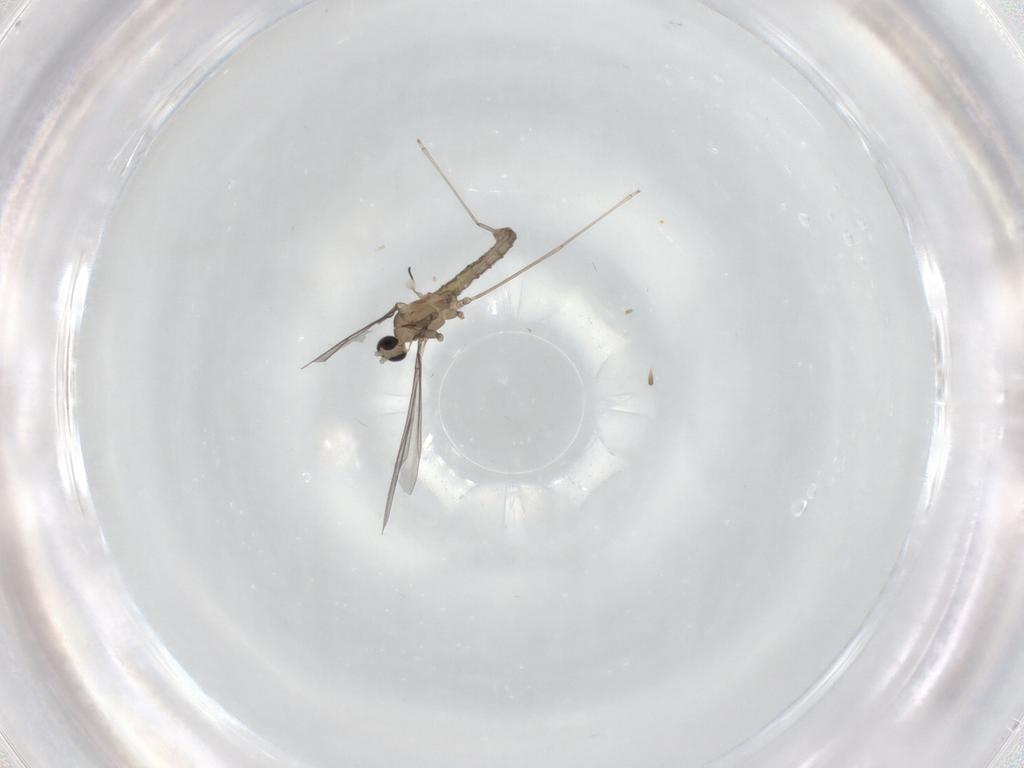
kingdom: Animalia
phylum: Arthropoda
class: Insecta
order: Diptera
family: Cecidomyiidae
